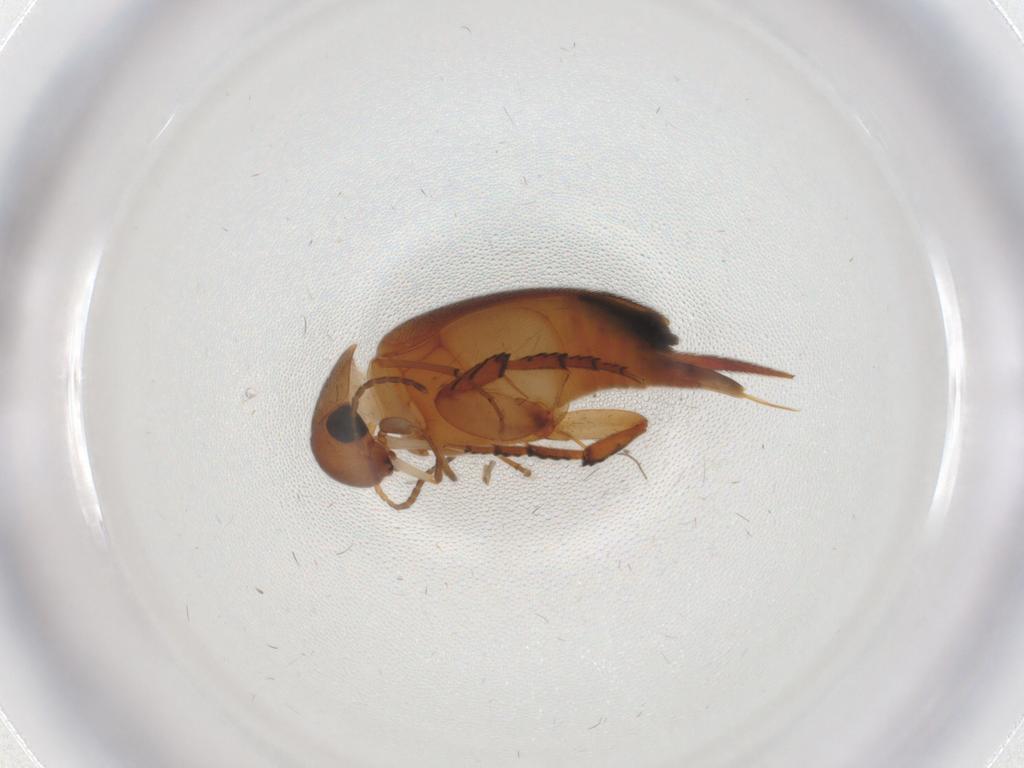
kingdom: Animalia
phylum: Arthropoda
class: Insecta
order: Coleoptera
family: Mordellidae
